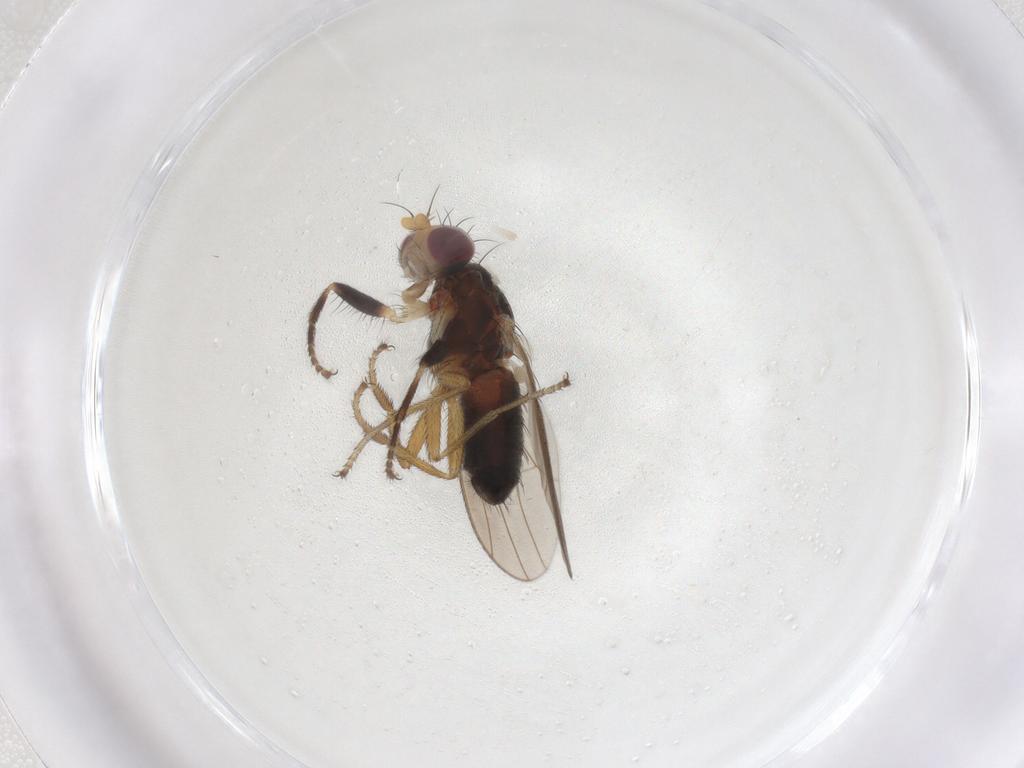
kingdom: Animalia
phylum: Arthropoda
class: Insecta
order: Diptera
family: Heleomyzidae
